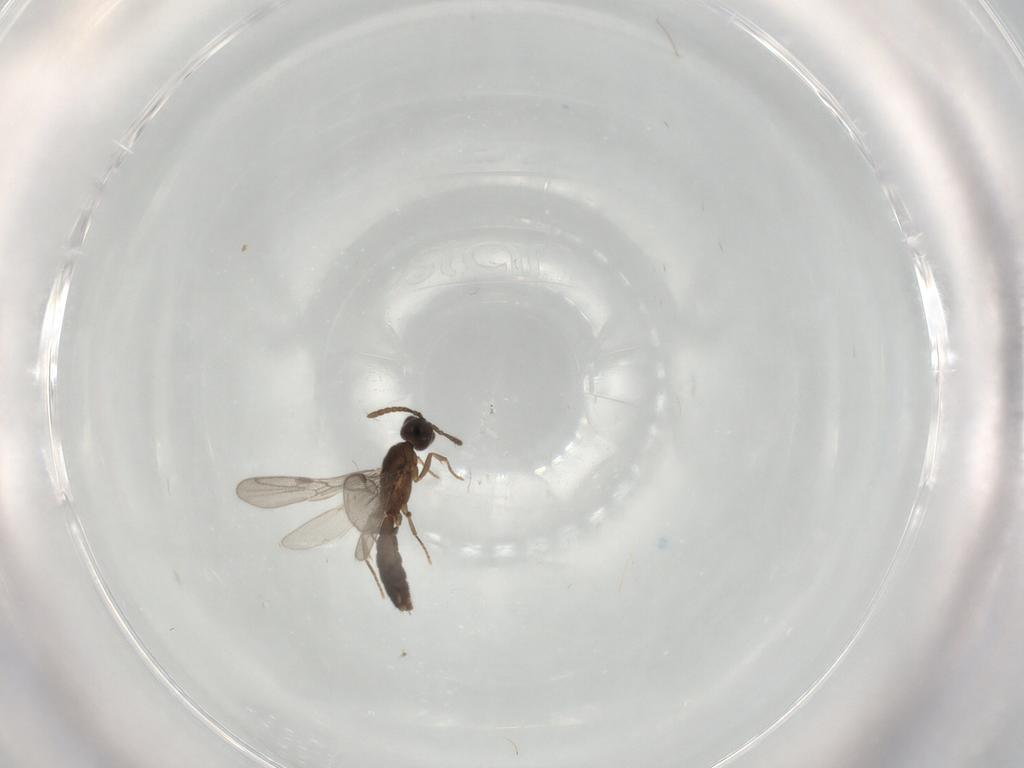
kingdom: Animalia
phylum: Arthropoda
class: Insecta
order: Hymenoptera
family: Formicidae
